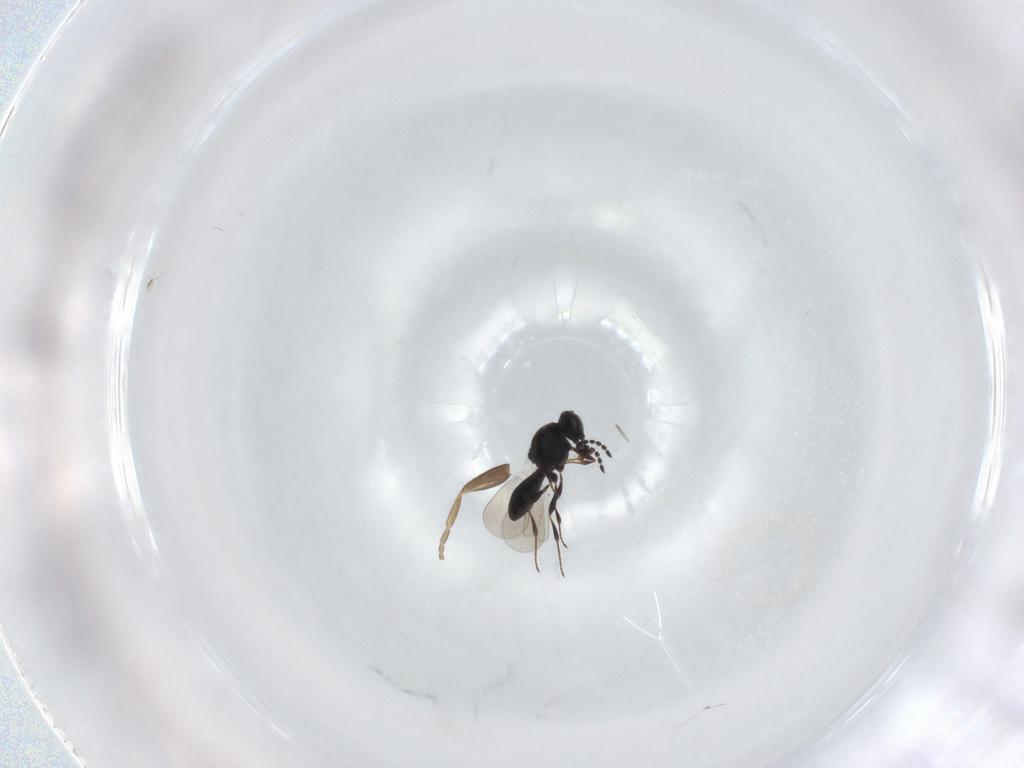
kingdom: Animalia
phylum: Arthropoda
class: Insecta
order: Hymenoptera
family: Platygastridae
